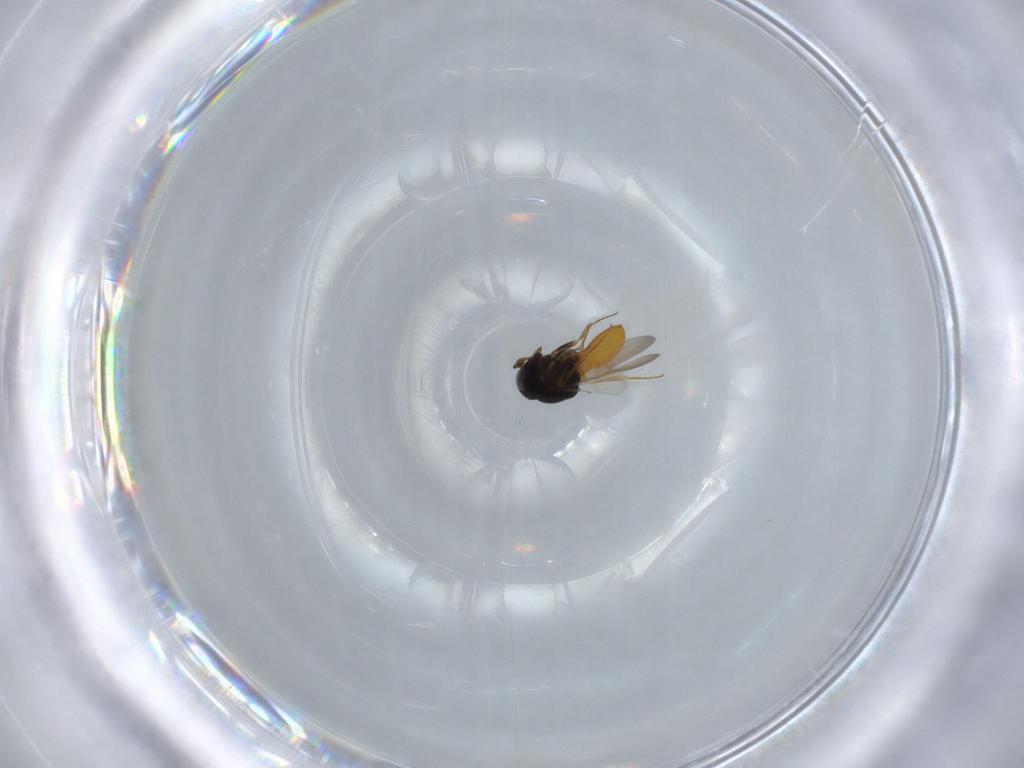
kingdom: Animalia
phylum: Arthropoda
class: Insecta
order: Hymenoptera
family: Scelionidae
